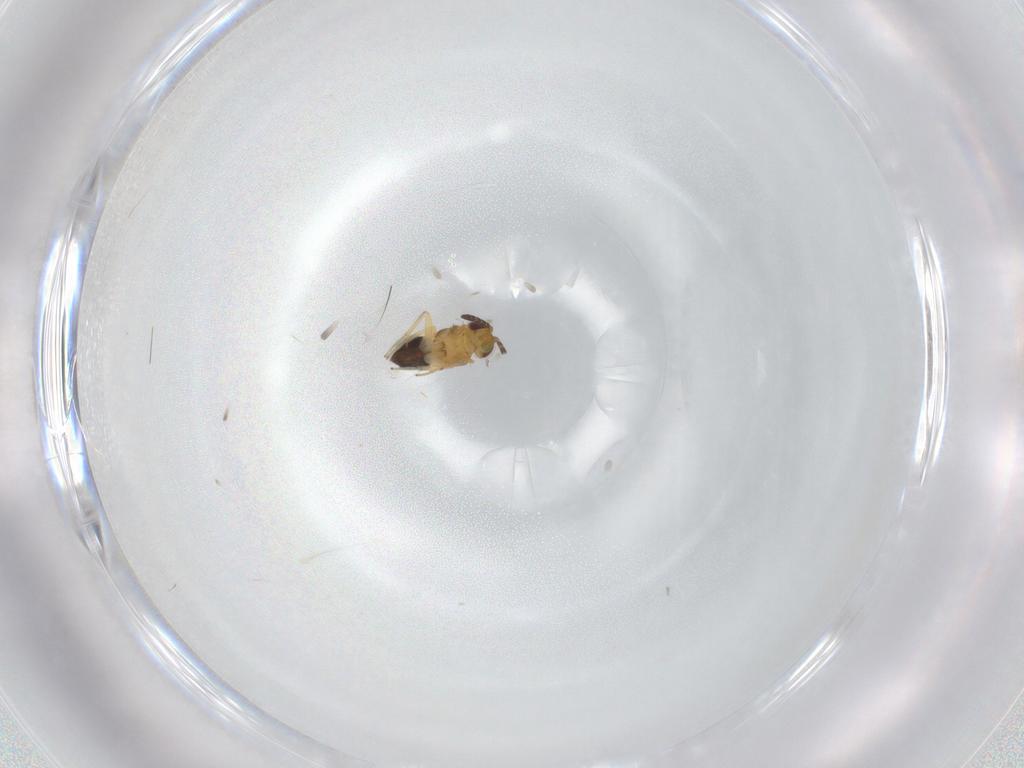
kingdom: Animalia
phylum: Arthropoda
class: Insecta
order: Hymenoptera
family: Aphelinidae
